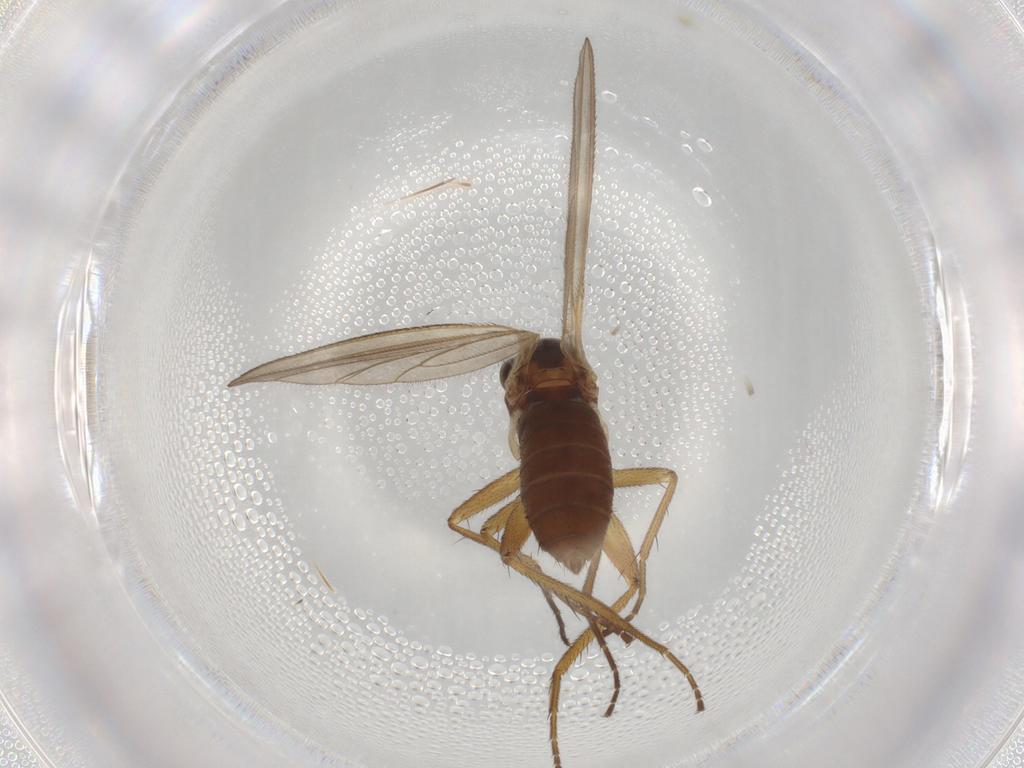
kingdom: Animalia
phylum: Arthropoda
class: Insecta
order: Diptera
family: Lonchopteridae
